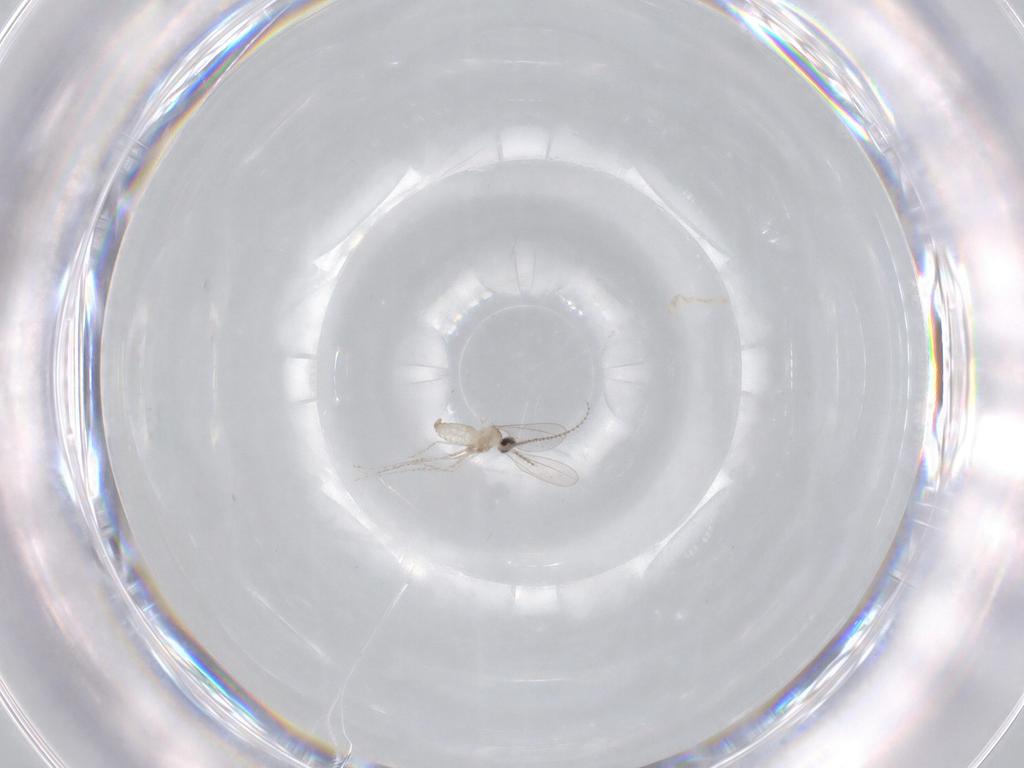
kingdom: Animalia
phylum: Arthropoda
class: Insecta
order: Diptera
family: Cecidomyiidae
